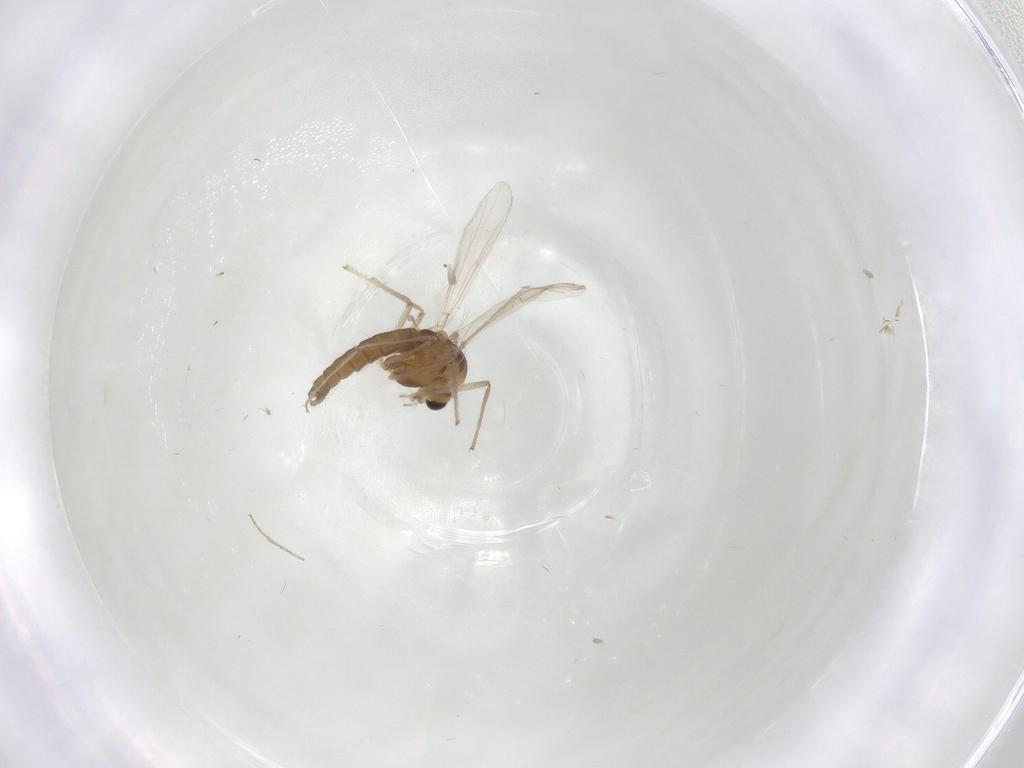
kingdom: Animalia
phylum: Arthropoda
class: Insecta
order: Diptera
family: Chironomidae
